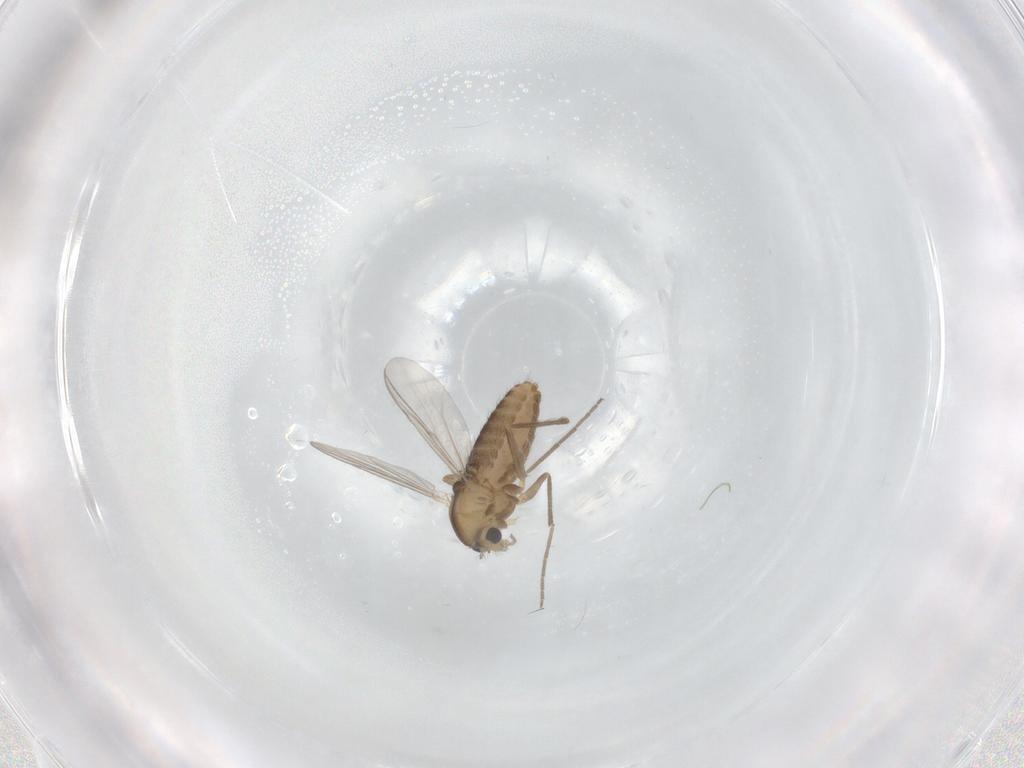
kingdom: Animalia
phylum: Arthropoda
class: Insecta
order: Diptera
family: Chironomidae
